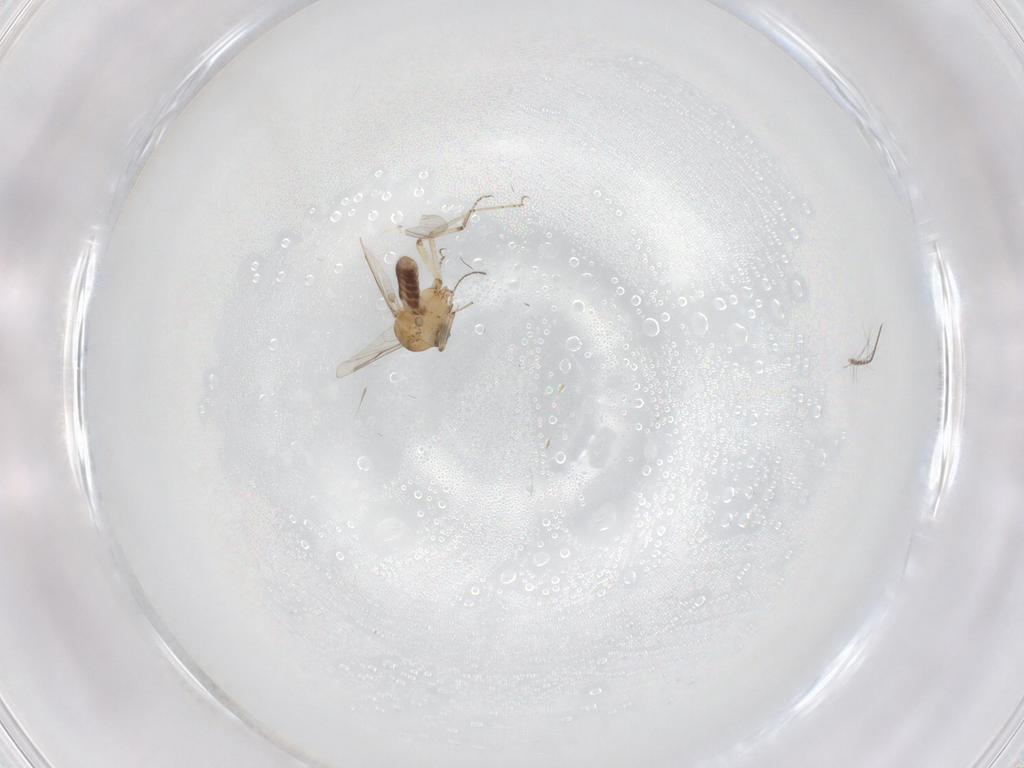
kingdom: Animalia
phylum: Arthropoda
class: Insecta
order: Diptera
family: Ceratopogonidae
